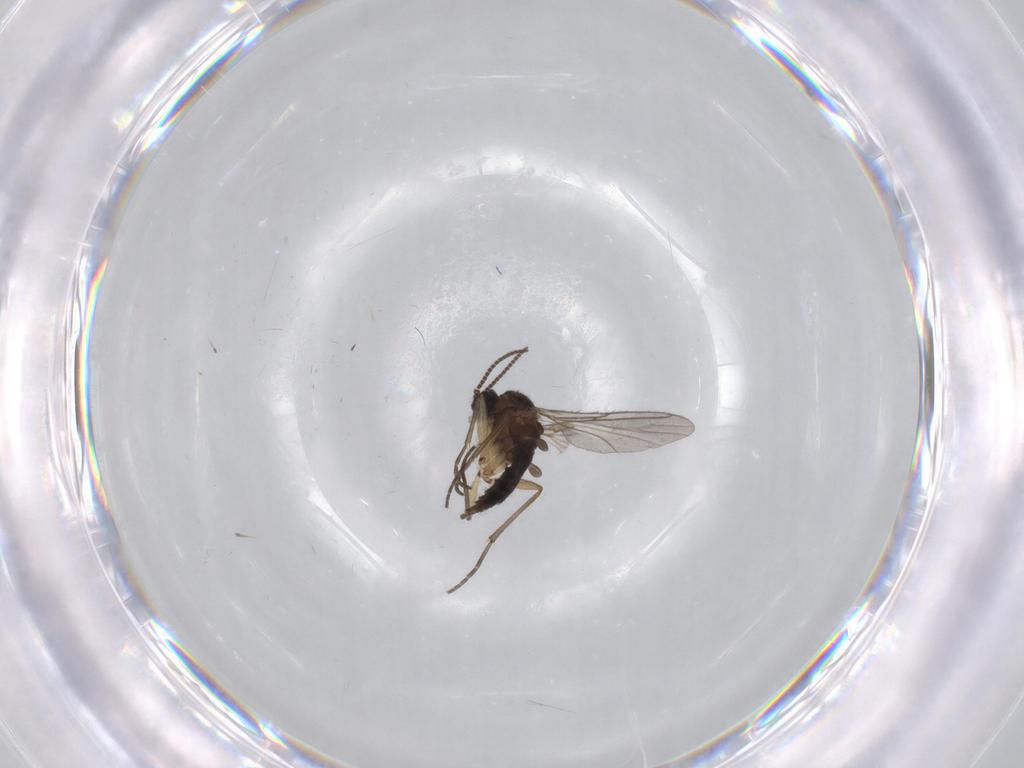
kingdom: Animalia
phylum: Arthropoda
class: Insecta
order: Diptera
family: Sciaridae
